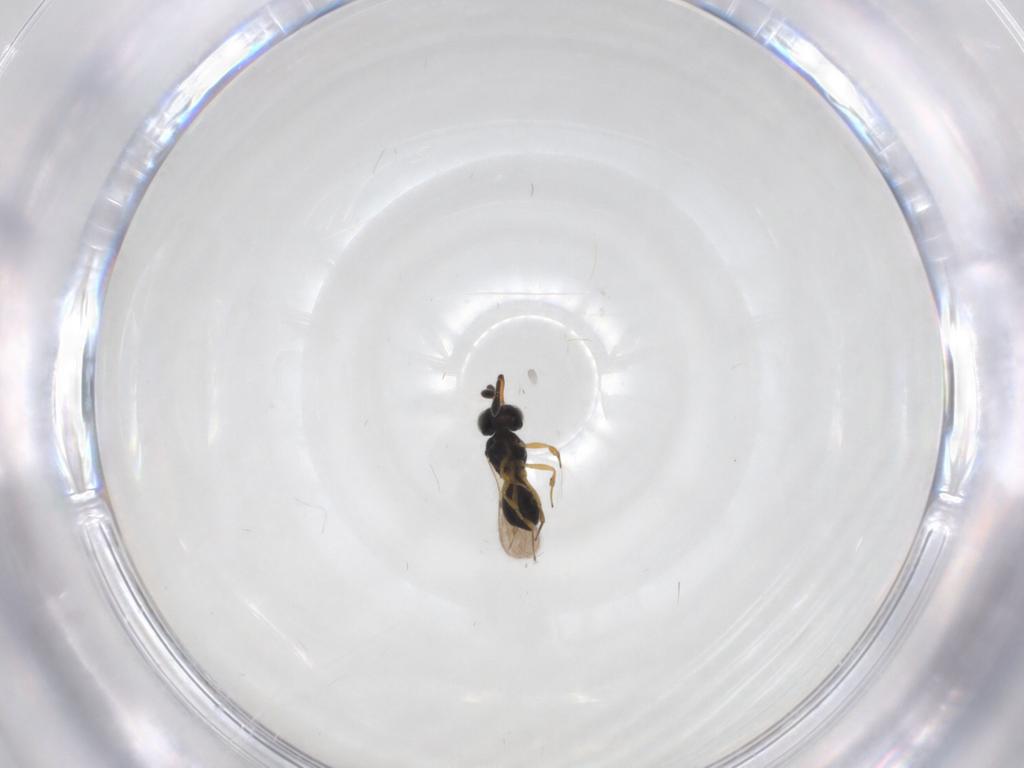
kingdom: Animalia
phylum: Arthropoda
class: Insecta
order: Hymenoptera
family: Scelionidae
